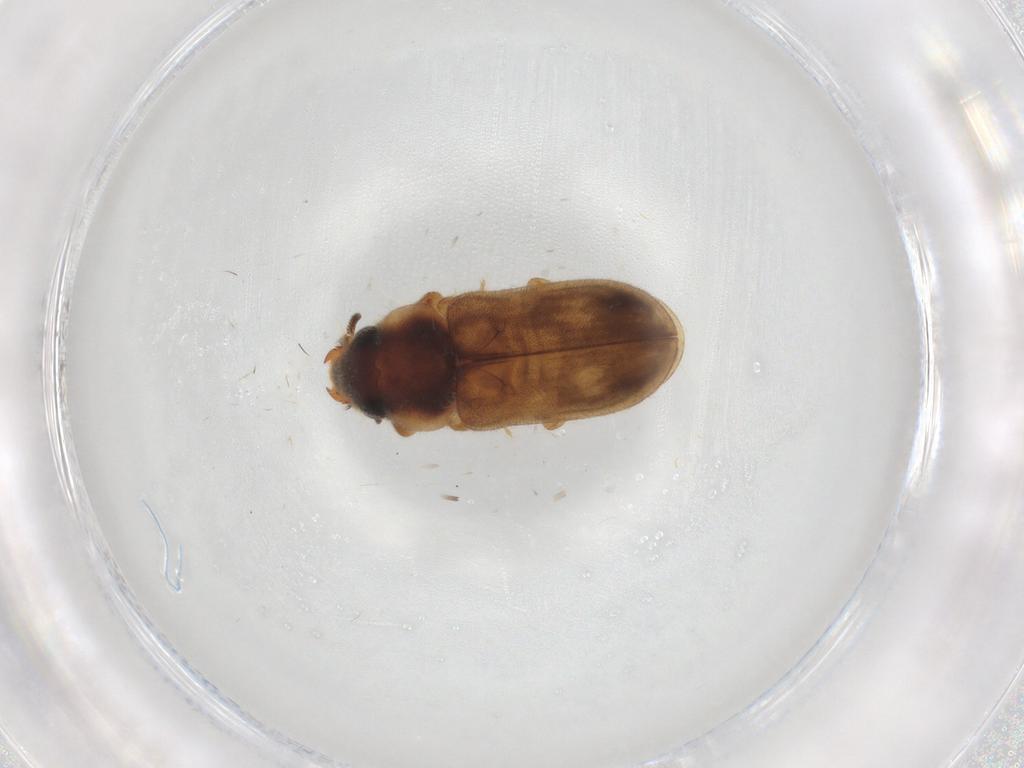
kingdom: Animalia
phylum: Arthropoda
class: Insecta
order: Coleoptera
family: Heteroceridae
